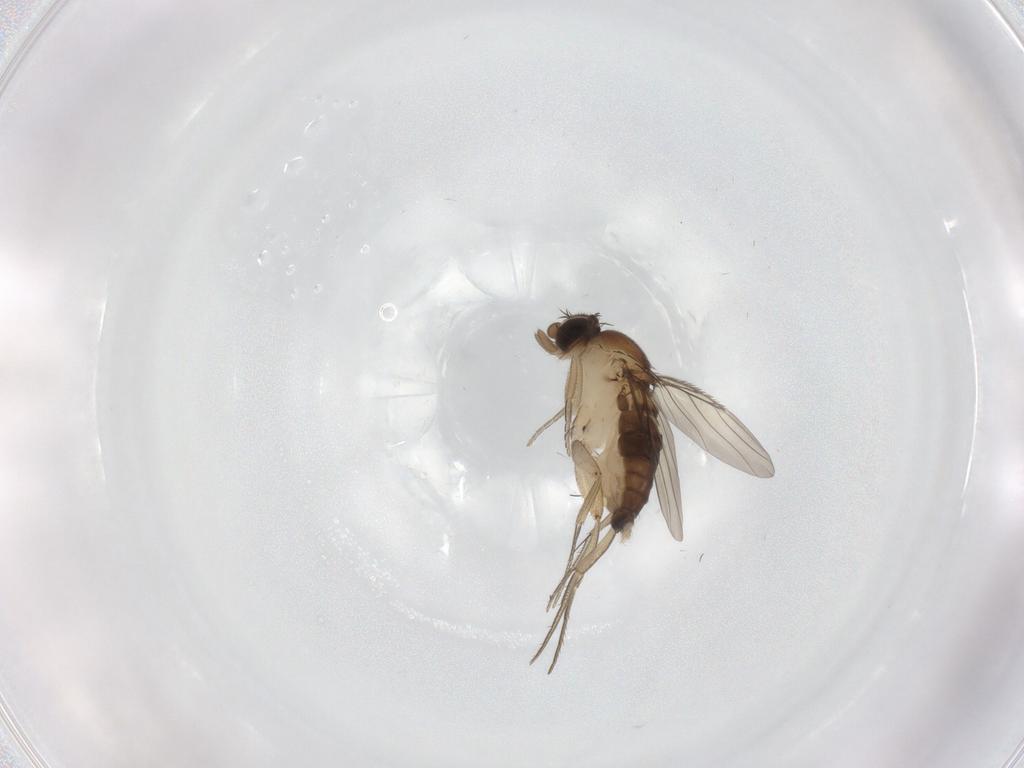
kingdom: Animalia
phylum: Arthropoda
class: Insecta
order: Diptera
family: Phoridae
